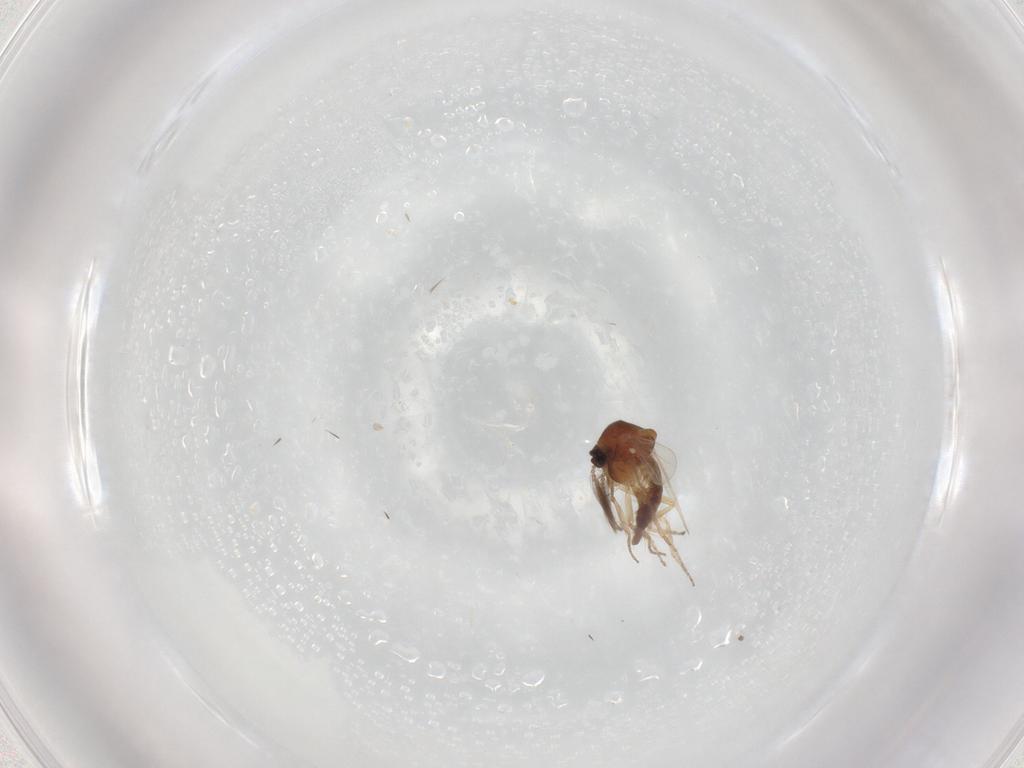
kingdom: Animalia
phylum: Arthropoda
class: Insecta
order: Diptera
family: Ceratopogonidae
